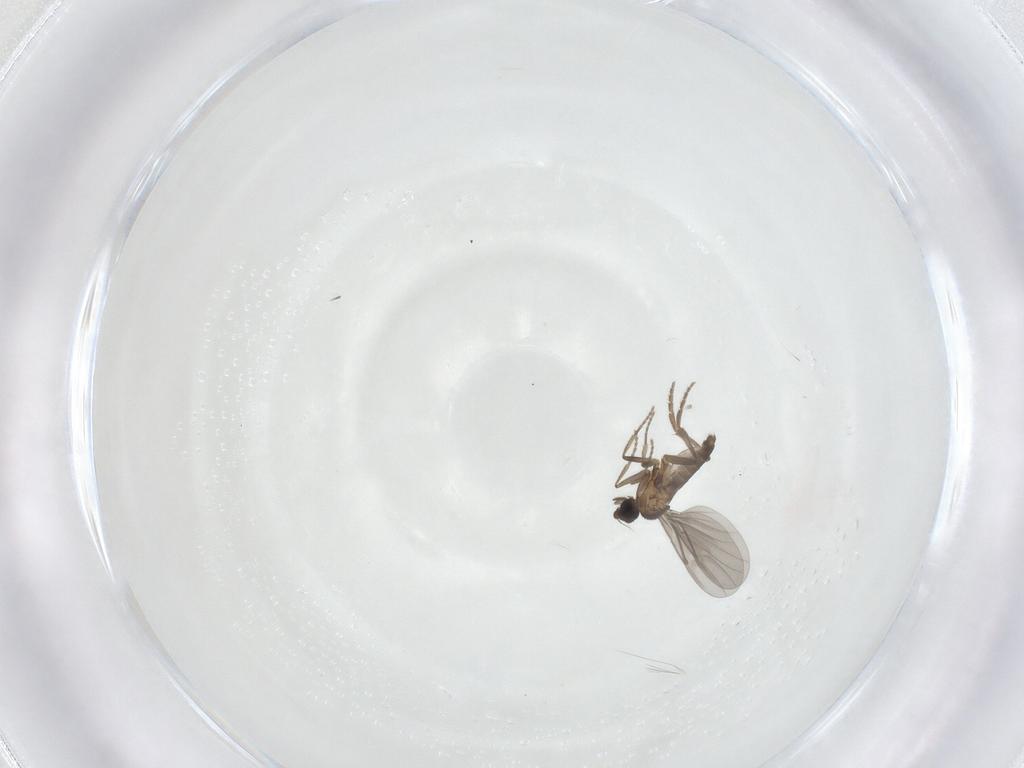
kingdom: Animalia
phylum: Arthropoda
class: Insecta
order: Diptera
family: Phoridae
